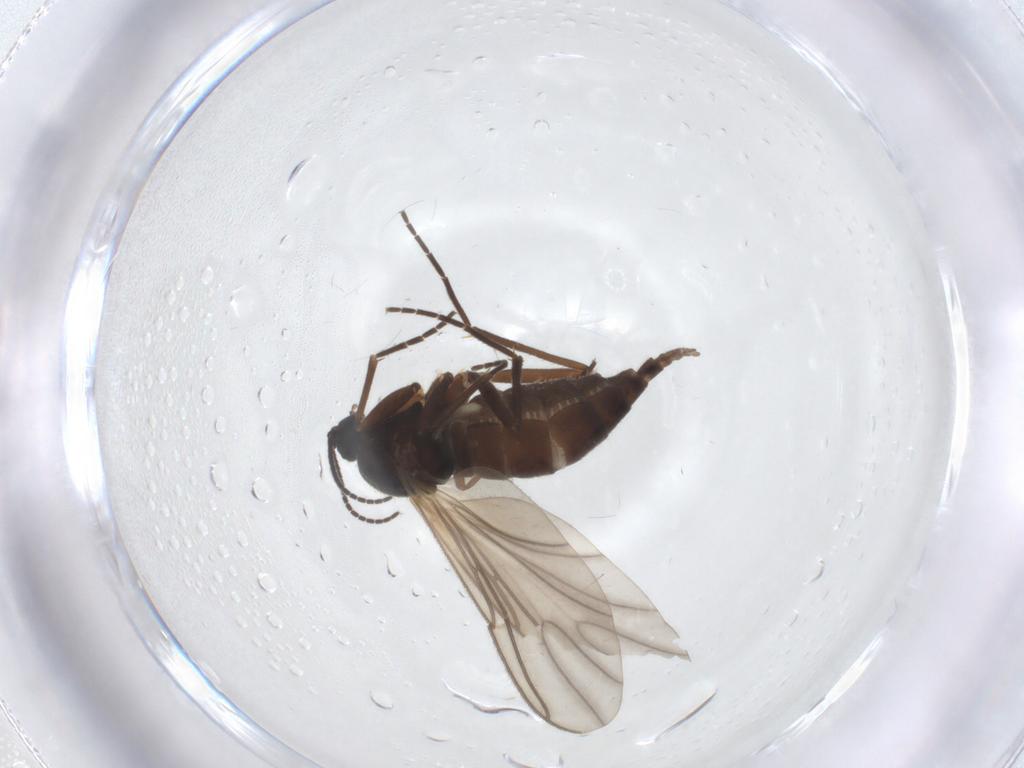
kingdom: Animalia
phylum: Arthropoda
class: Insecta
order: Diptera
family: Sciaridae
